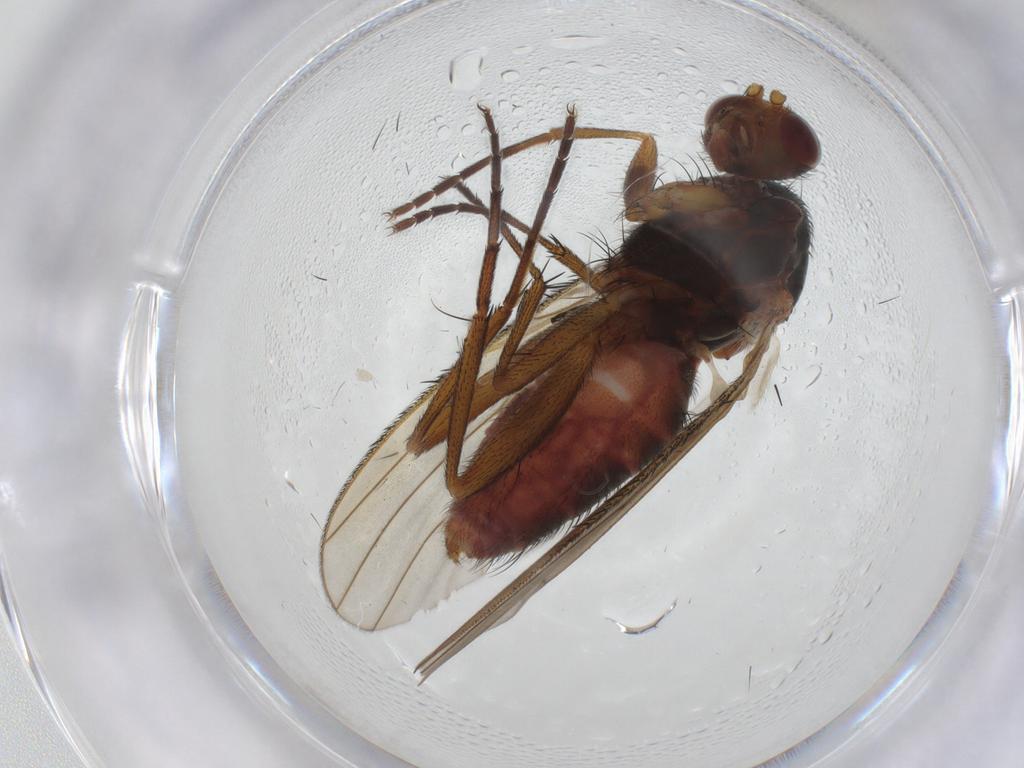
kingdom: Animalia
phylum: Arthropoda
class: Insecta
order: Diptera
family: Heleomyzidae
